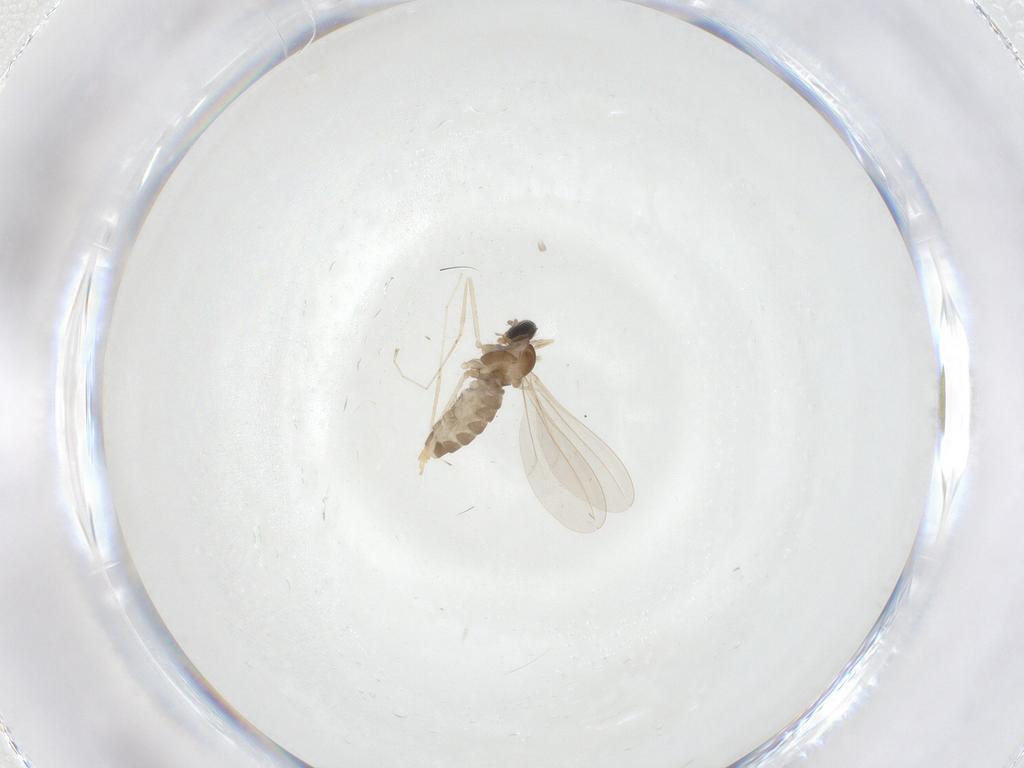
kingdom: Animalia
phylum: Arthropoda
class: Insecta
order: Diptera
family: Cecidomyiidae
